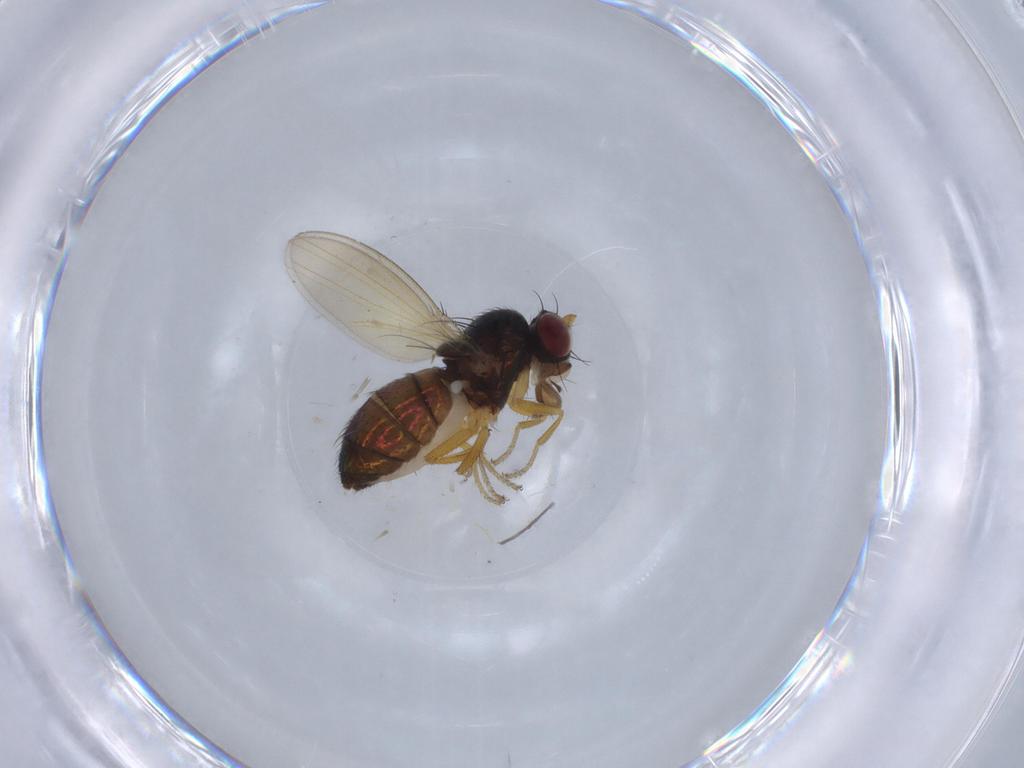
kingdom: Animalia
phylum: Arthropoda
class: Insecta
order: Diptera
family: Ephydridae
